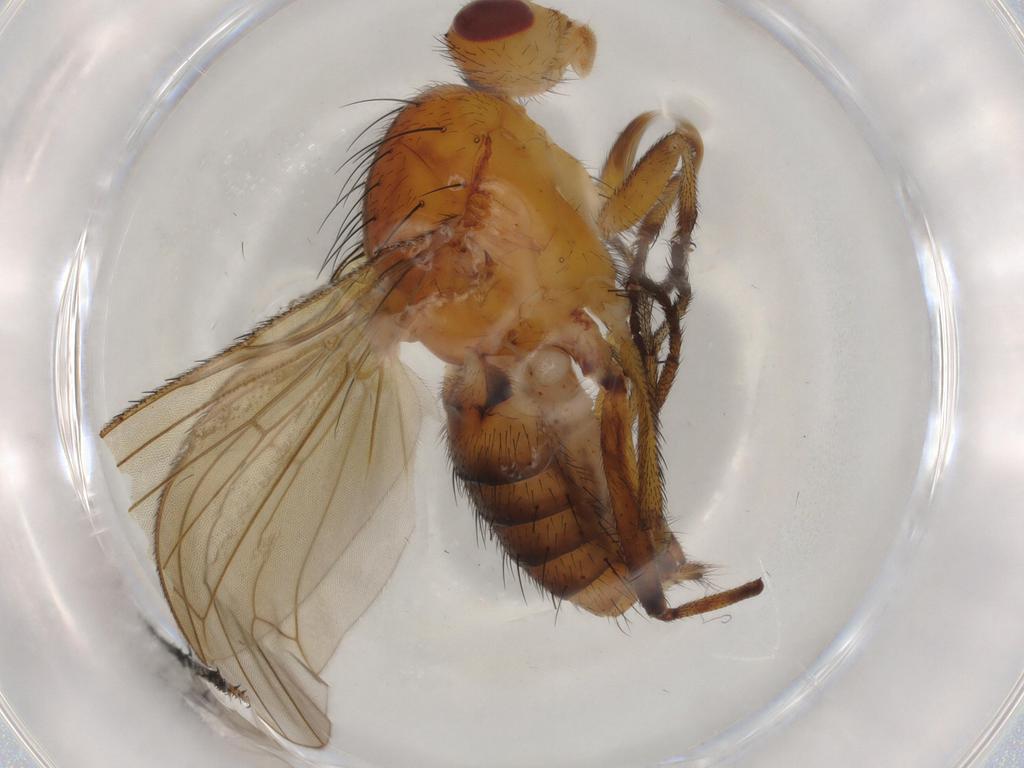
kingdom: Animalia
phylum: Arthropoda
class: Insecta
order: Diptera
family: Heleomyzidae
